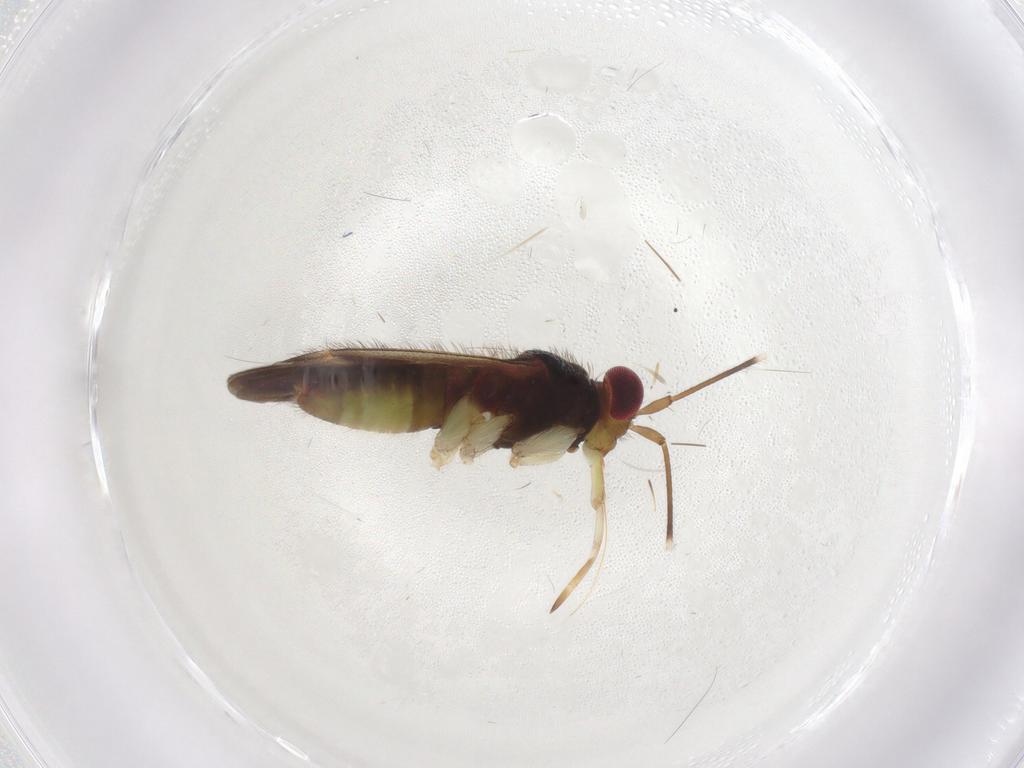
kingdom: Animalia
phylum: Arthropoda
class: Insecta
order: Hemiptera
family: Miridae
